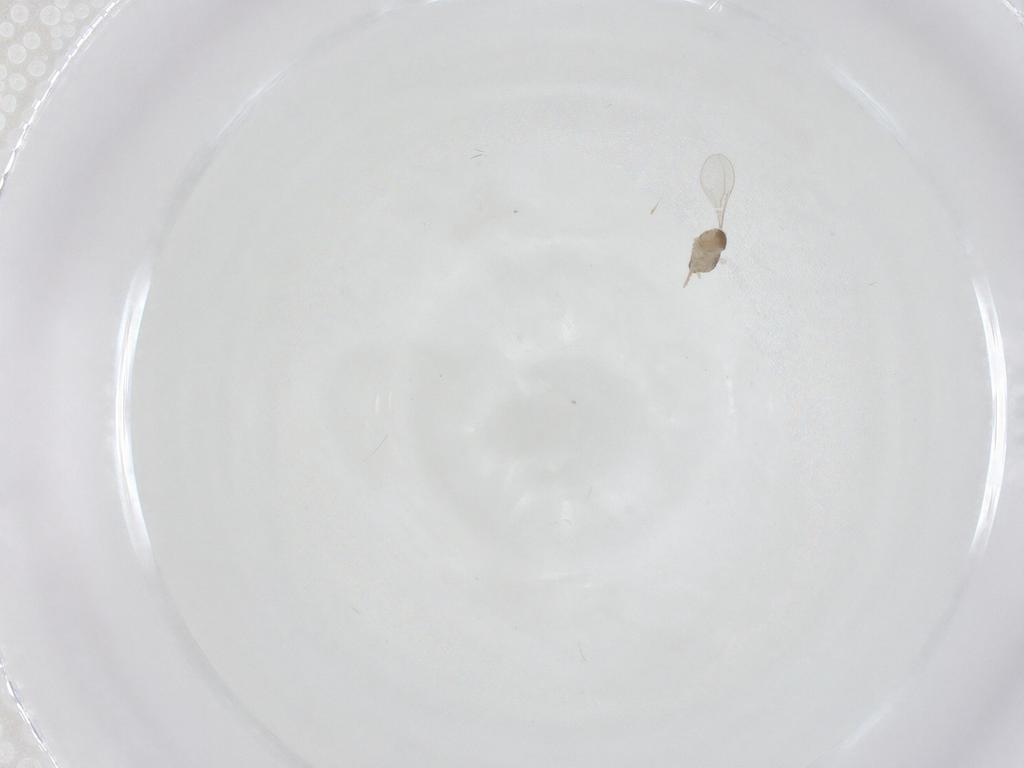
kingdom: Animalia
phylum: Arthropoda
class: Insecta
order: Diptera
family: Cecidomyiidae
